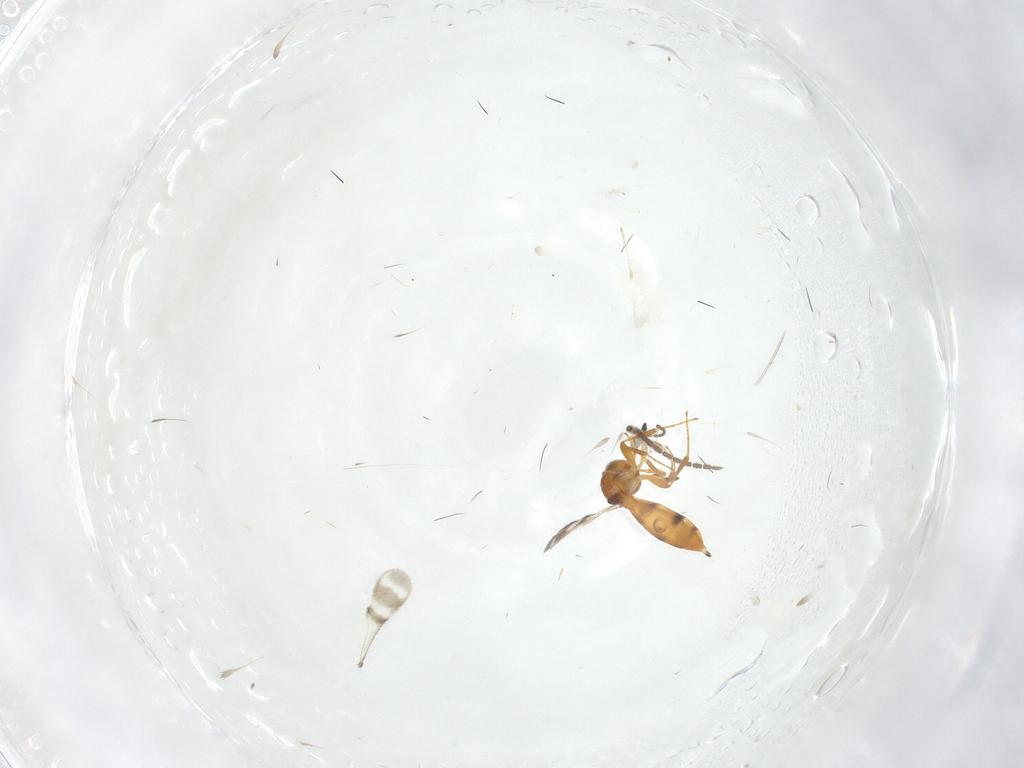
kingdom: Animalia
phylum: Arthropoda
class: Insecta
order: Hymenoptera
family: Scelionidae
